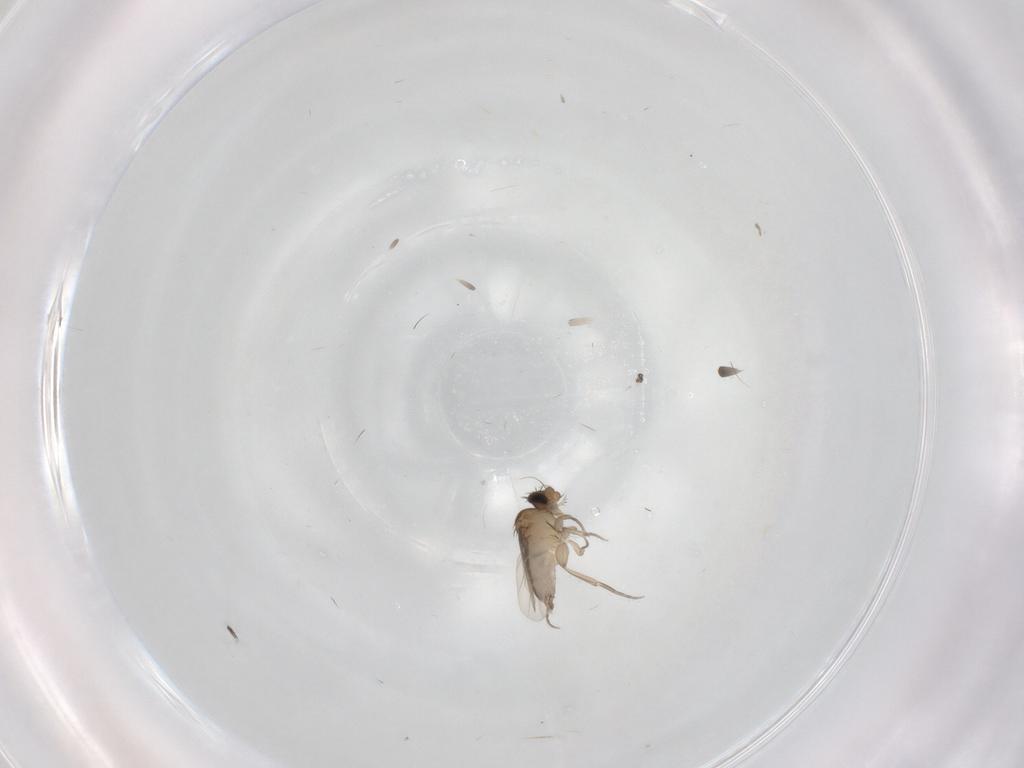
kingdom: Animalia
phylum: Arthropoda
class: Insecta
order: Diptera
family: Phoridae
